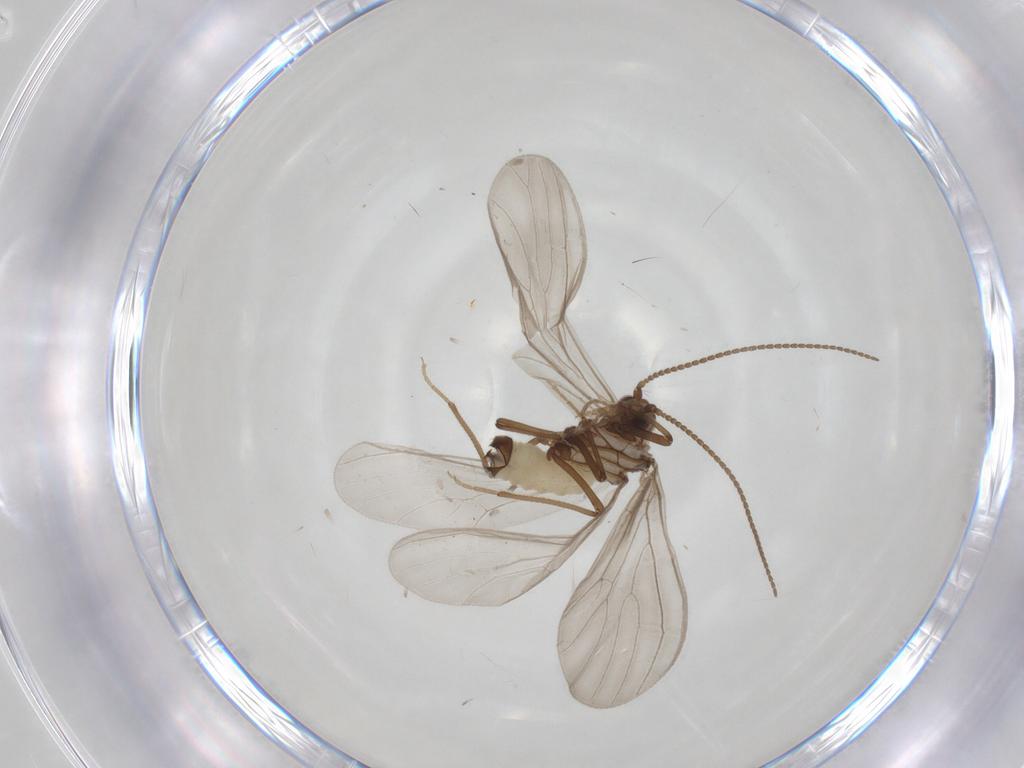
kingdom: Animalia
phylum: Arthropoda
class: Insecta
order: Neuroptera
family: Coniopterygidae
